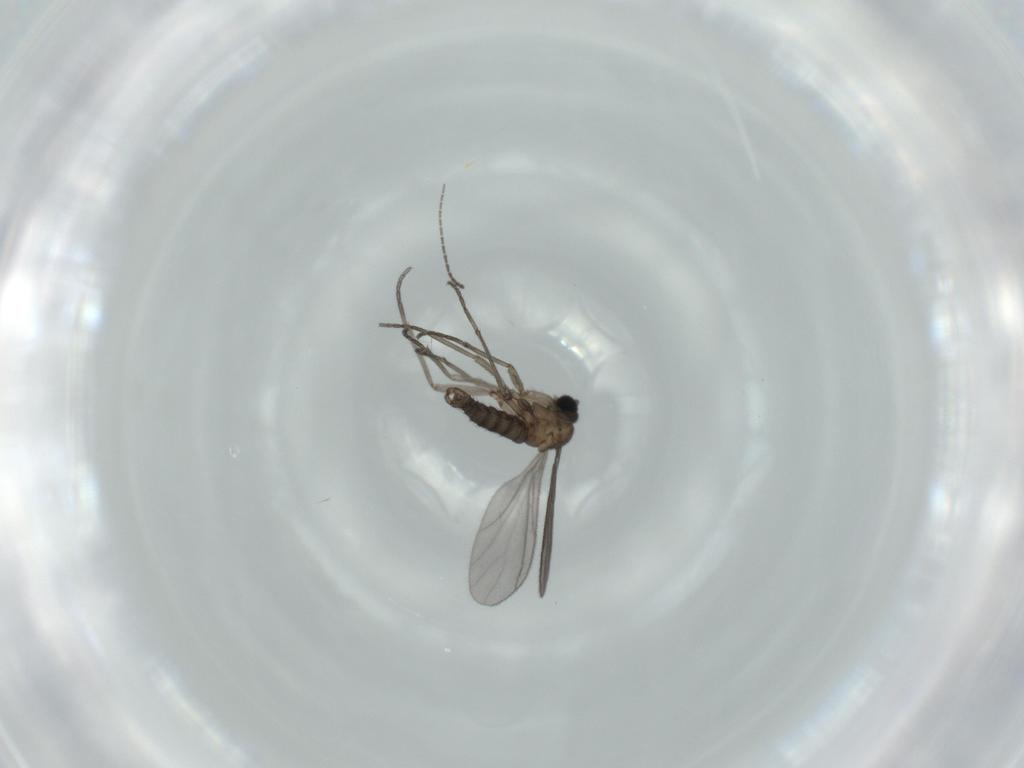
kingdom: Animalia
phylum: Arthropoda
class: Insecta
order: Diptera
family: Sciaridae
